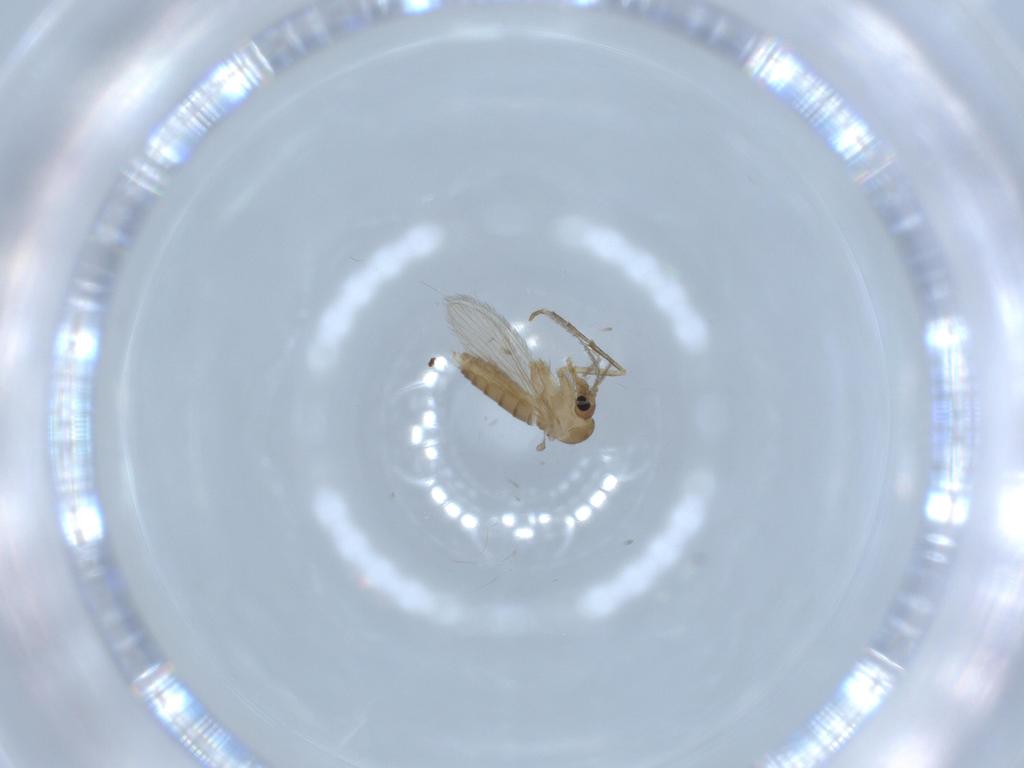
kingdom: Animalia
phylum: Arthropoda
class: Insecta
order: Diptera
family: Psychodidae
